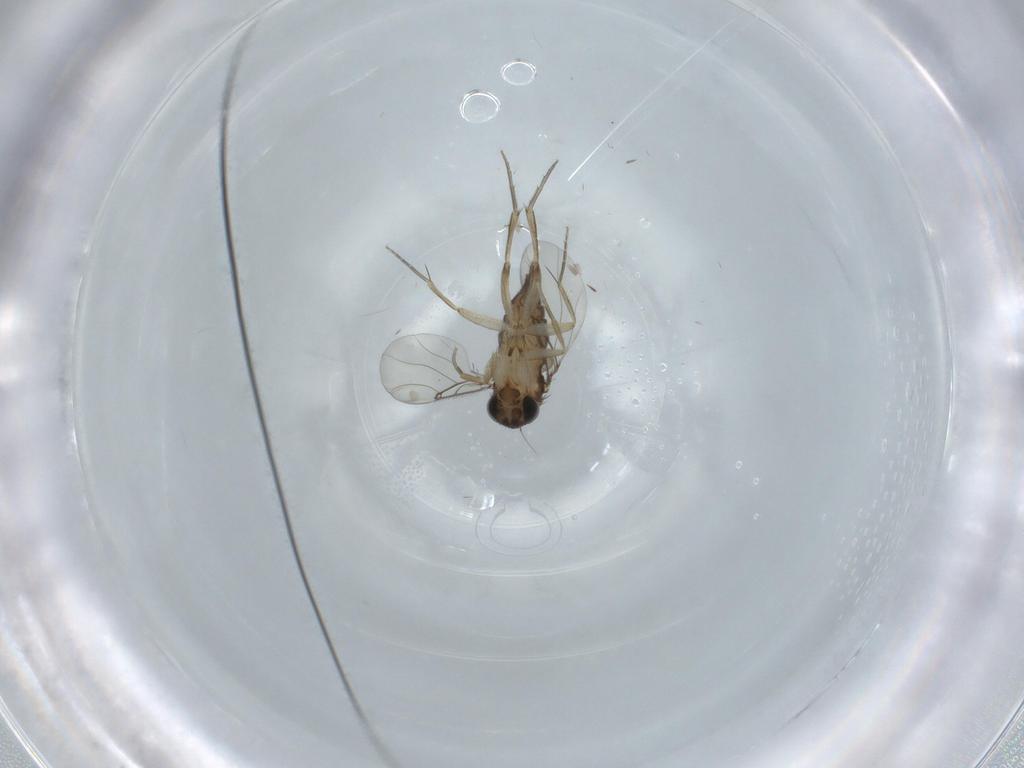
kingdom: Animalia
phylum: Arthropoda
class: Insecta
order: Diptera
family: Phoridae
